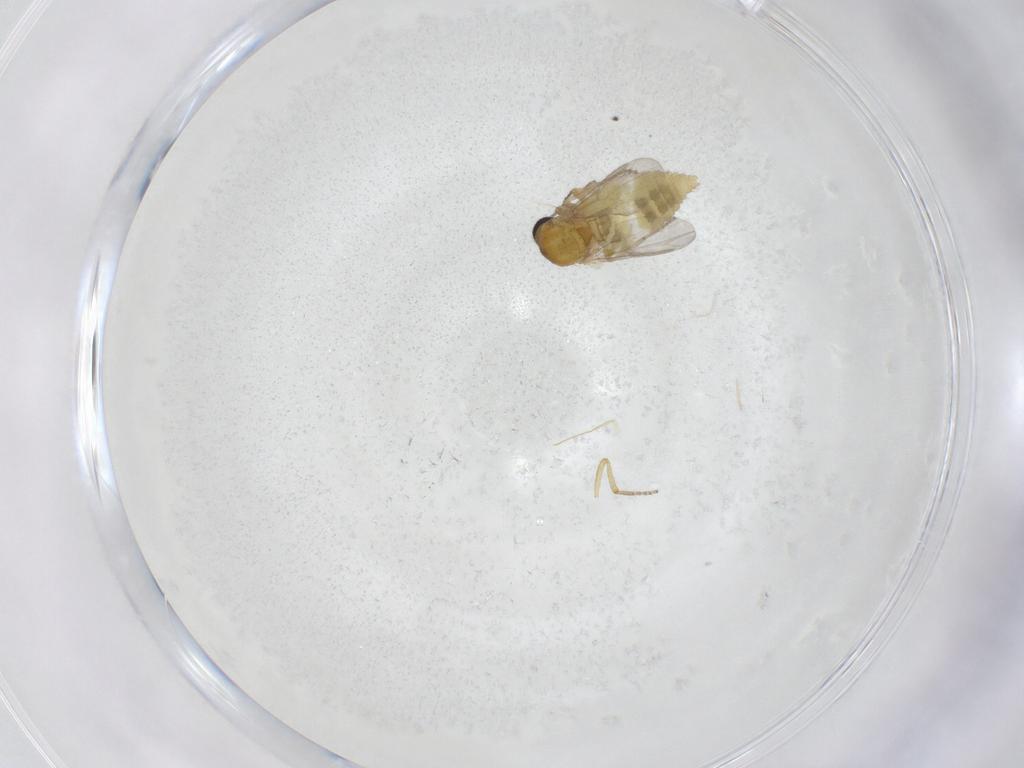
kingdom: Animalia
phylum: Arthropoda
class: Insecta
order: Diptera
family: Ceratopogonidae
